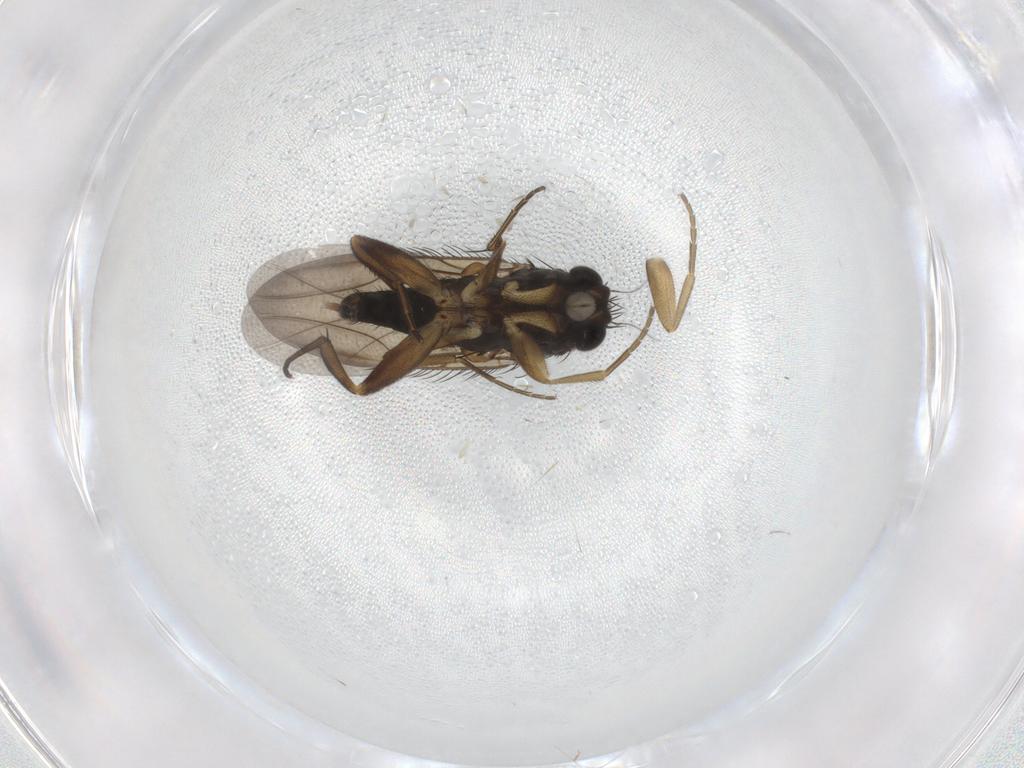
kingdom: Animalia
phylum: Arthropoda
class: Insecta
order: Diptera
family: Phoridae
